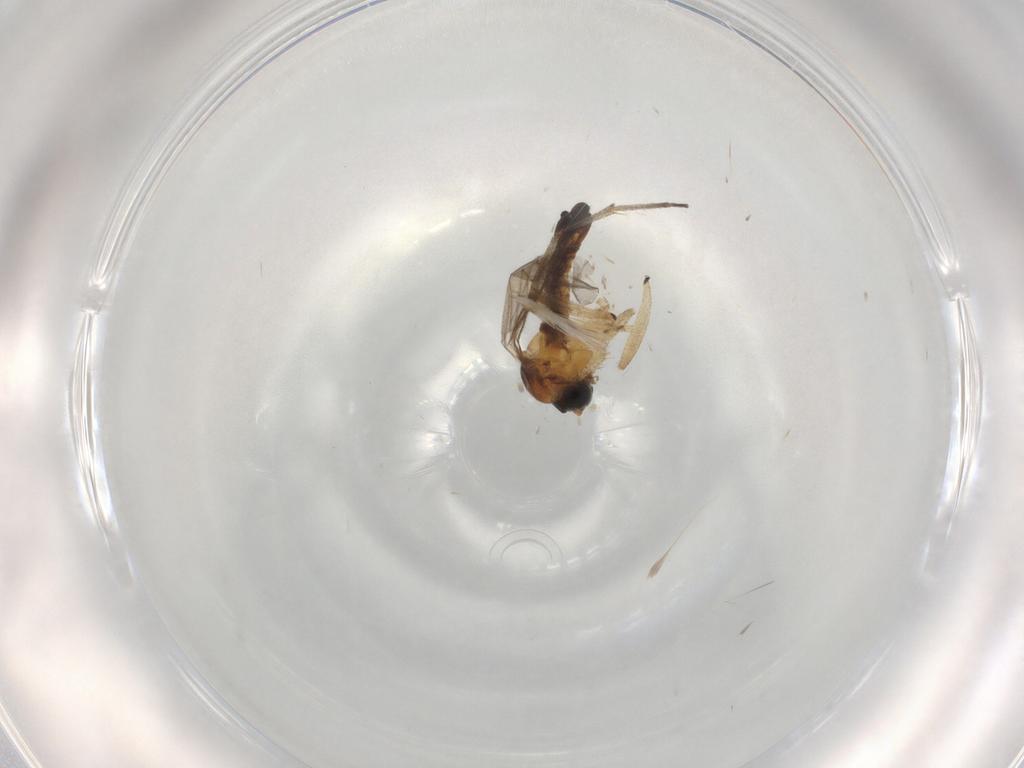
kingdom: Animalia
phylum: Arthropoda
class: Insecta
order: Diptera
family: Sciaridae
